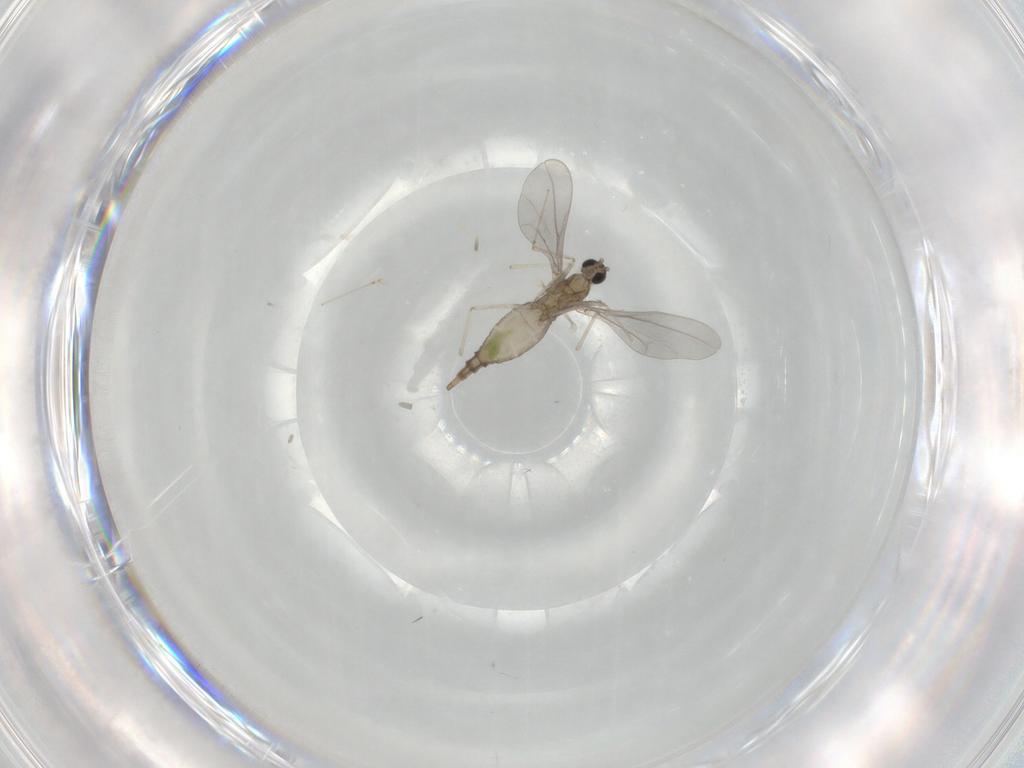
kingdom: Animalia
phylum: Arthropoda
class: Insecta
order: Diptera
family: Cecidomyiidae
